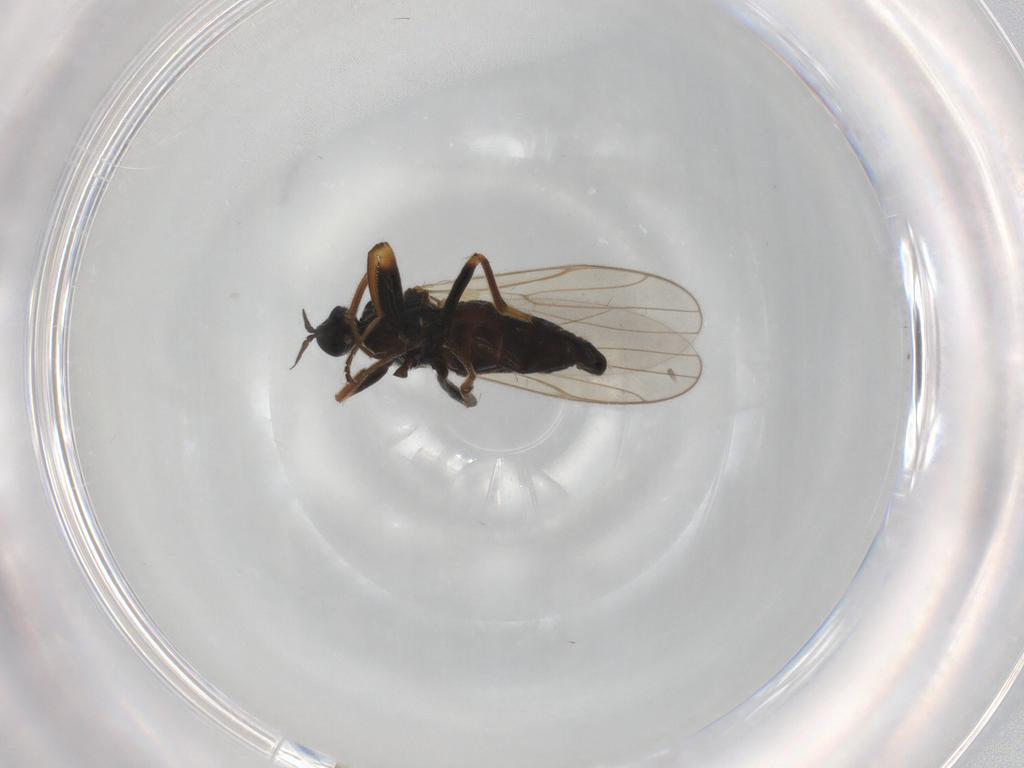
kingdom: Animalia
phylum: Arthropoda
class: Insecta
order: Diptera
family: Hybotidae
